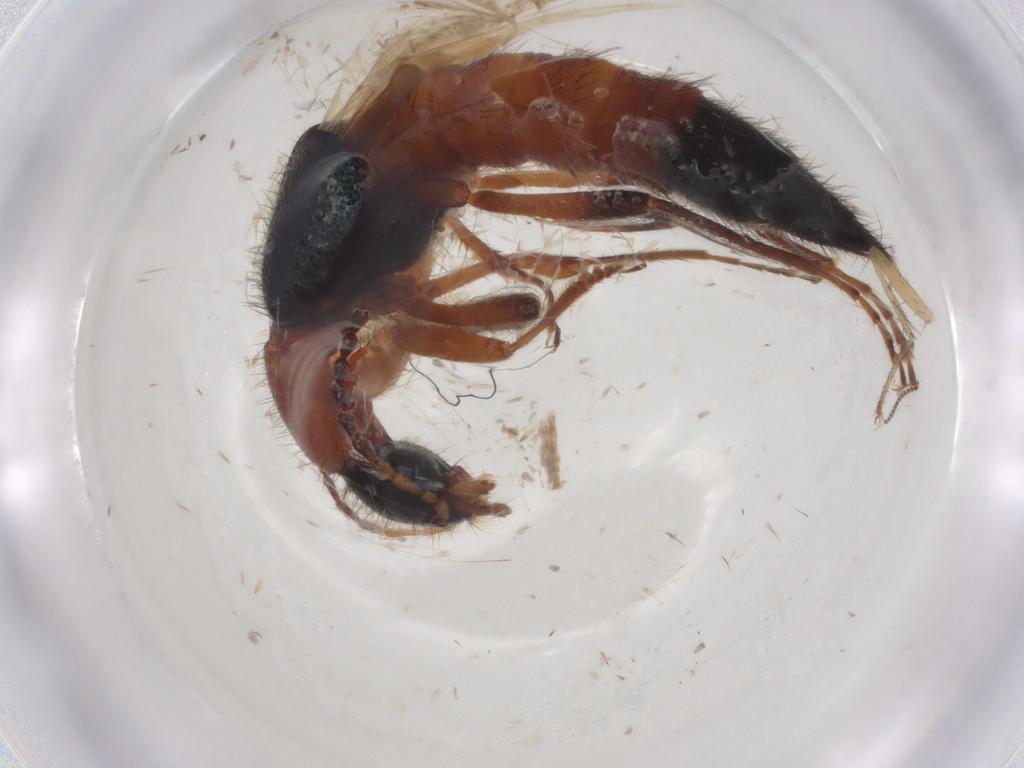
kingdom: Animalia
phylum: Arthropoda
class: Insecta
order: Coleoptera
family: Staphylinidae
